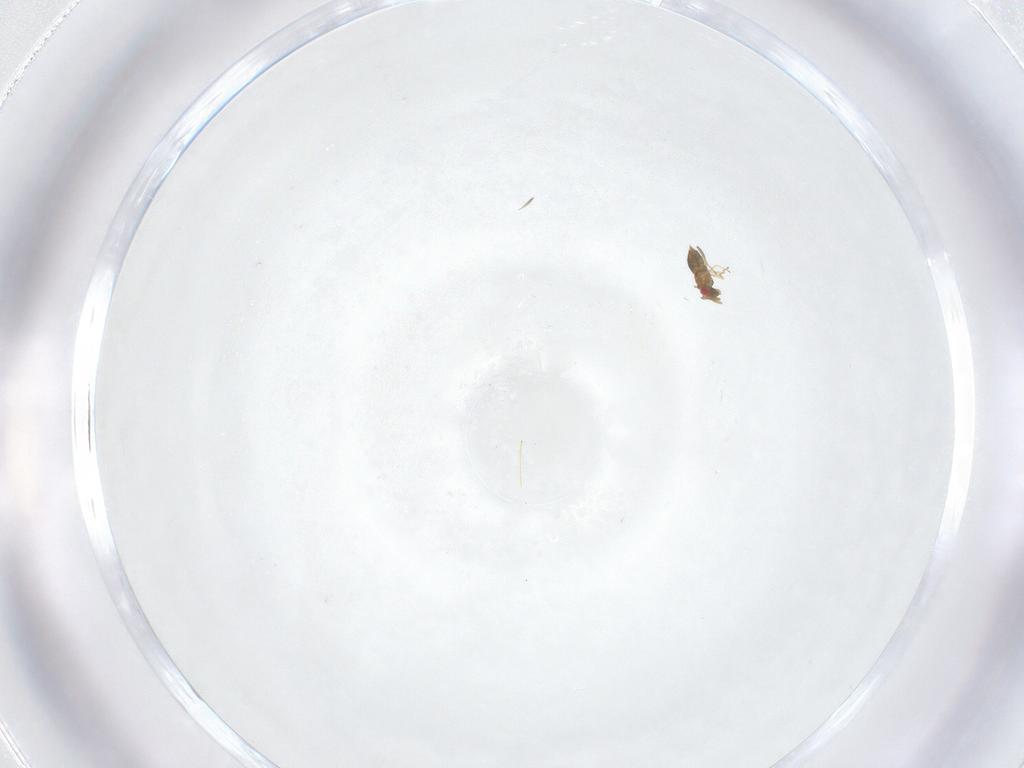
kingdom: Animalia
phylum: Arthropoda
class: Insecta
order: Hymenoptera
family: Trichogrammatidae
